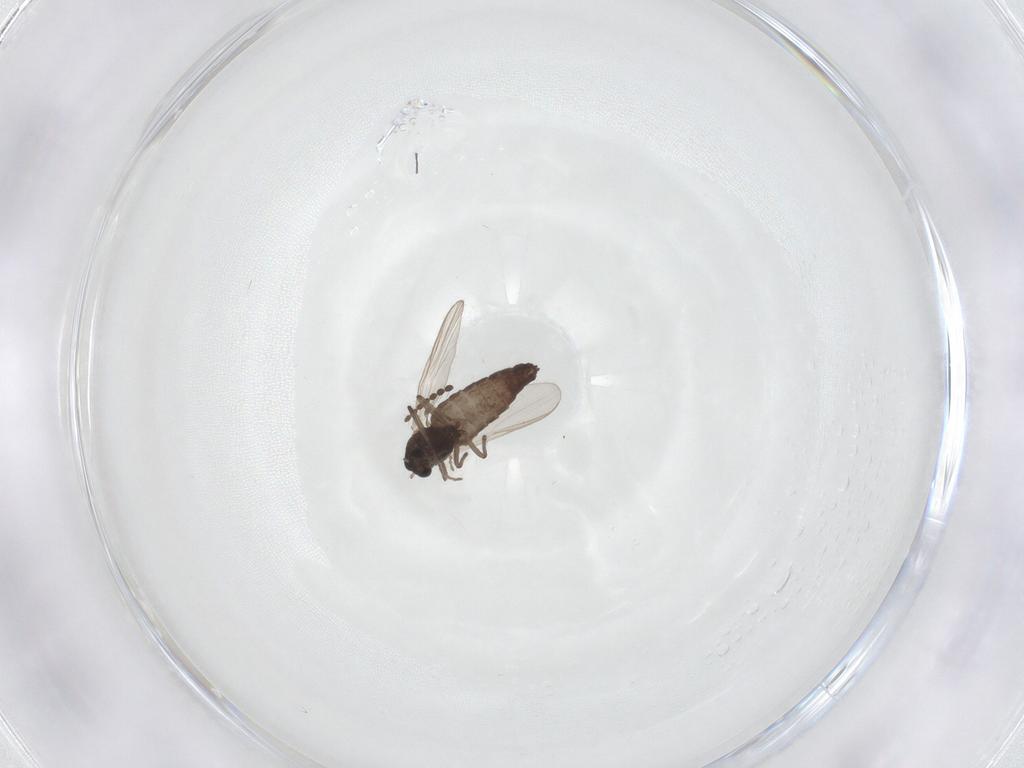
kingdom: Animalia
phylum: Arthropoda
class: Insecta
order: Diptera
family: Chironomidae
